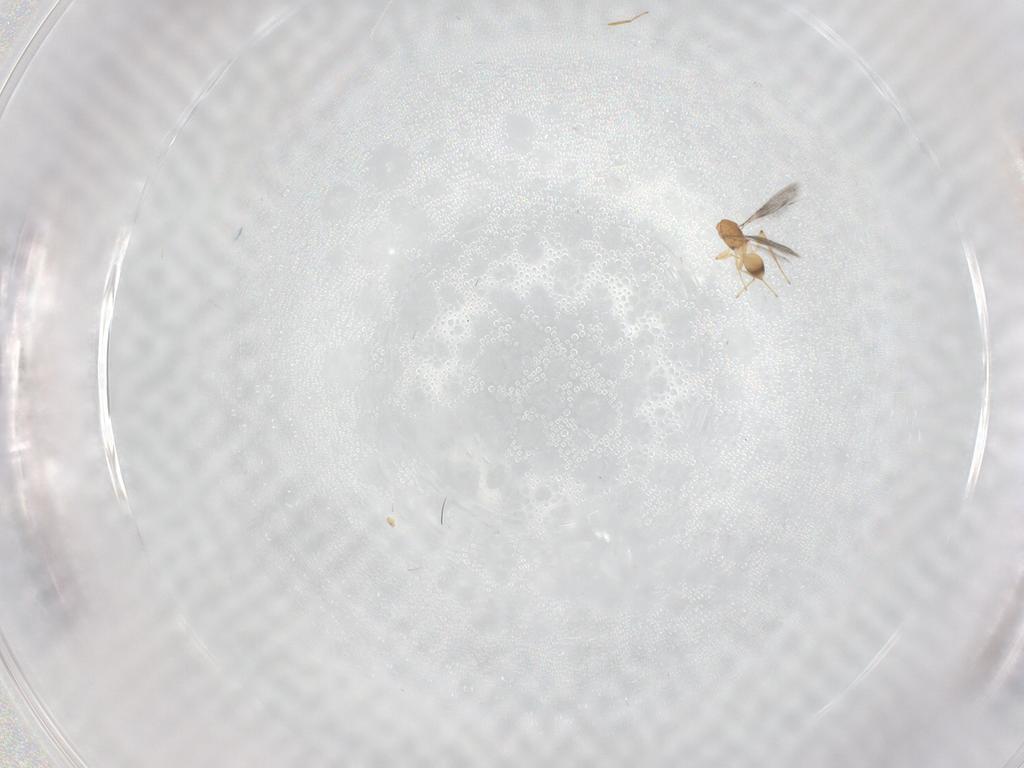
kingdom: Animalia
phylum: Arthropoda
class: Insecta
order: Hymenoptera
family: Mymaridae
